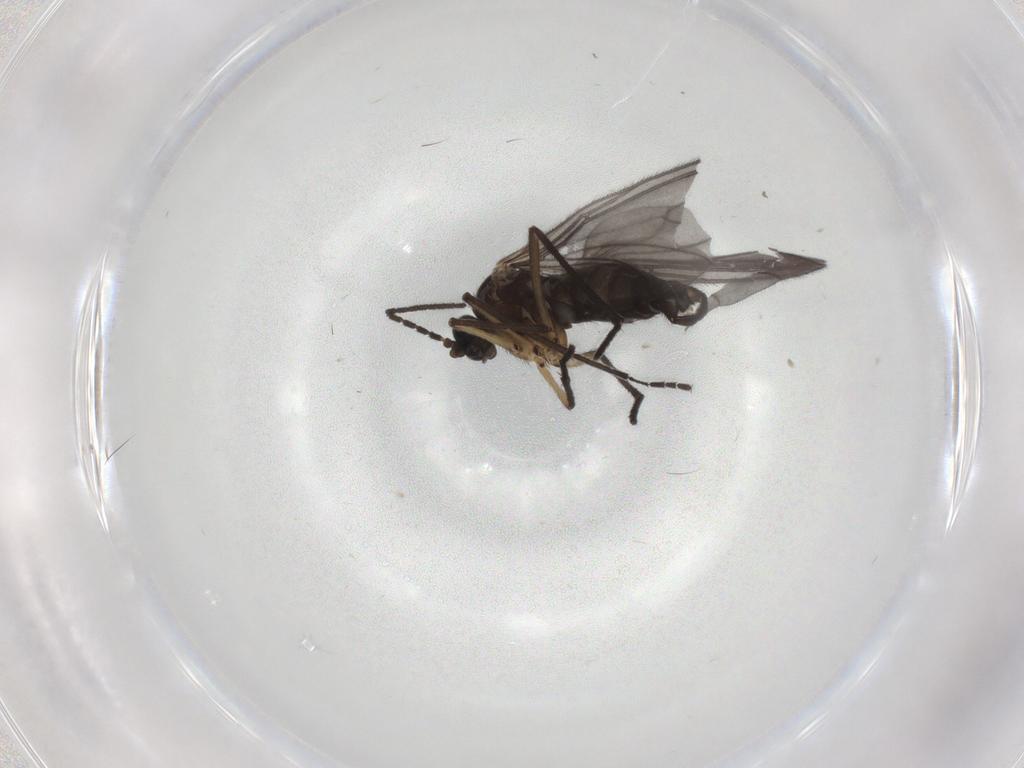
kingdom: Animalia
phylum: Arthropoda
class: Insecta
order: Diptera
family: Sciaridae
